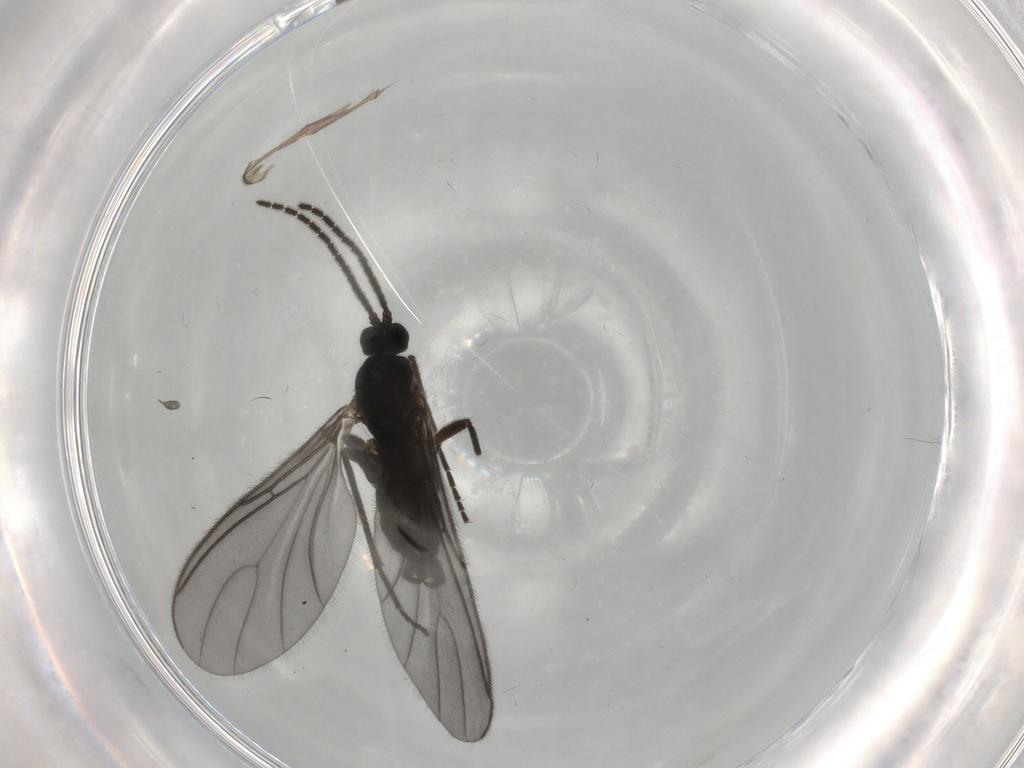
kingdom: Animalia
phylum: Arthropoda
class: Insecta
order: Diptera
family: Sciaridae
